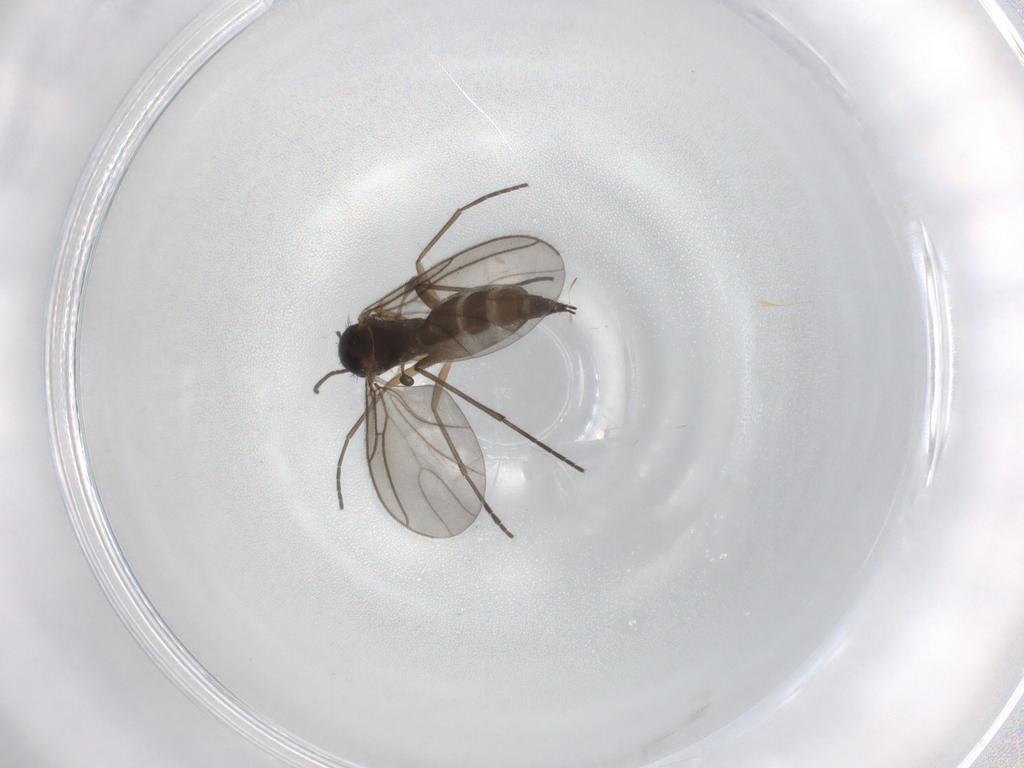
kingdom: Animalia
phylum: Arthropoda
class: Insecta
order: Diptera
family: Sciaridae
